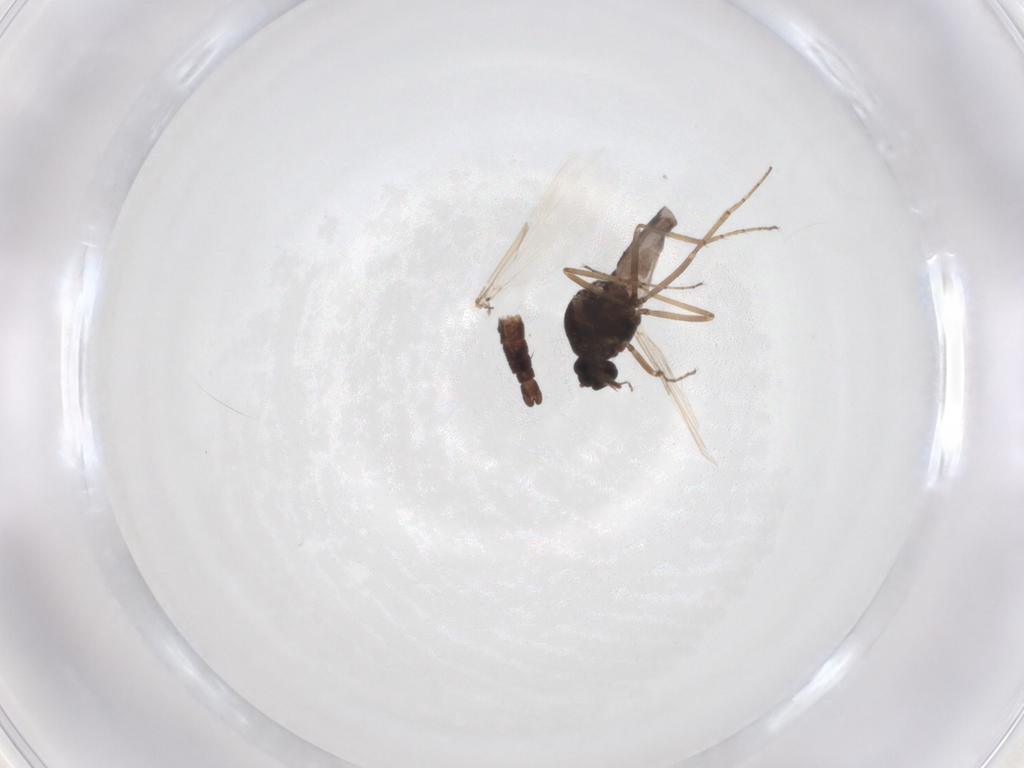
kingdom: Animalia
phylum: Arthropoda
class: Insecta
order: Diptera
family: Ceratopogonidae
